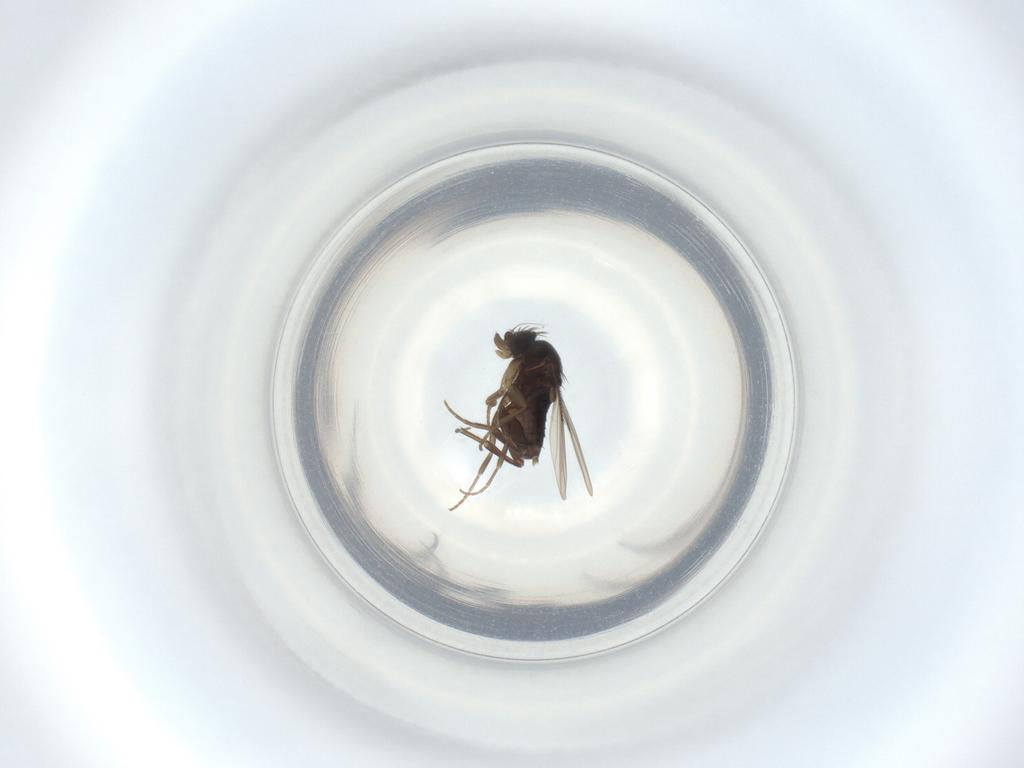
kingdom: Animalia
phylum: Arthropoda
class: Insecta
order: Diptera
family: Phoridae
